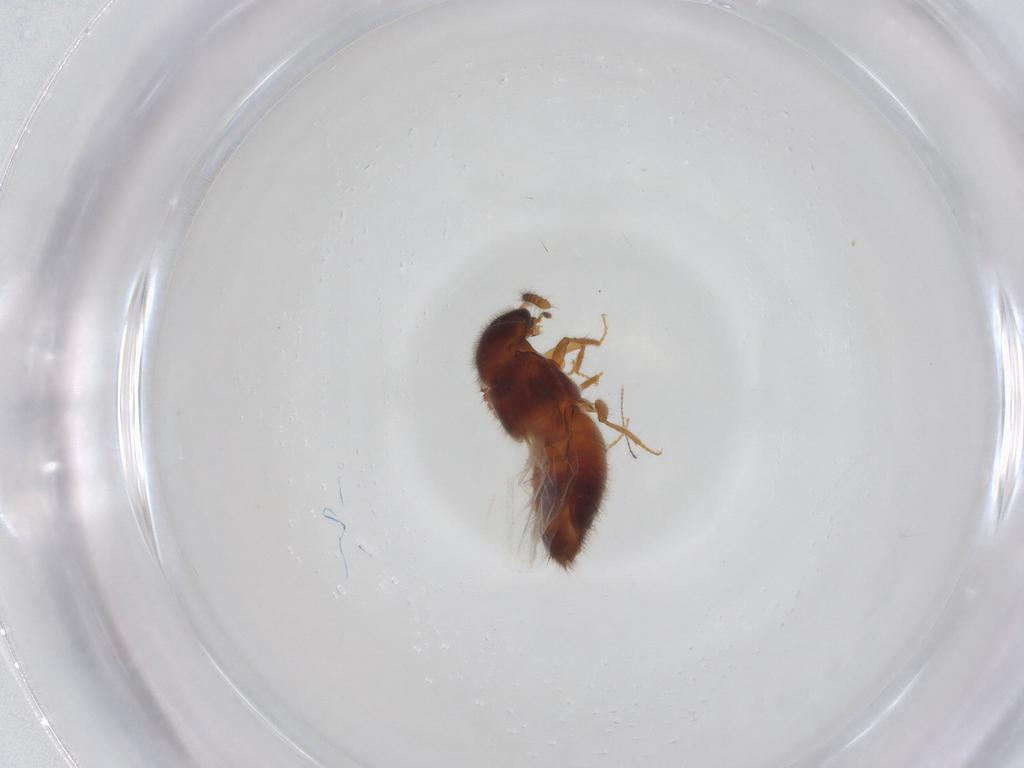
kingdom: Animalia
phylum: Arthropoda
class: Insecta
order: Coleoptera
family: Staphylinidae
